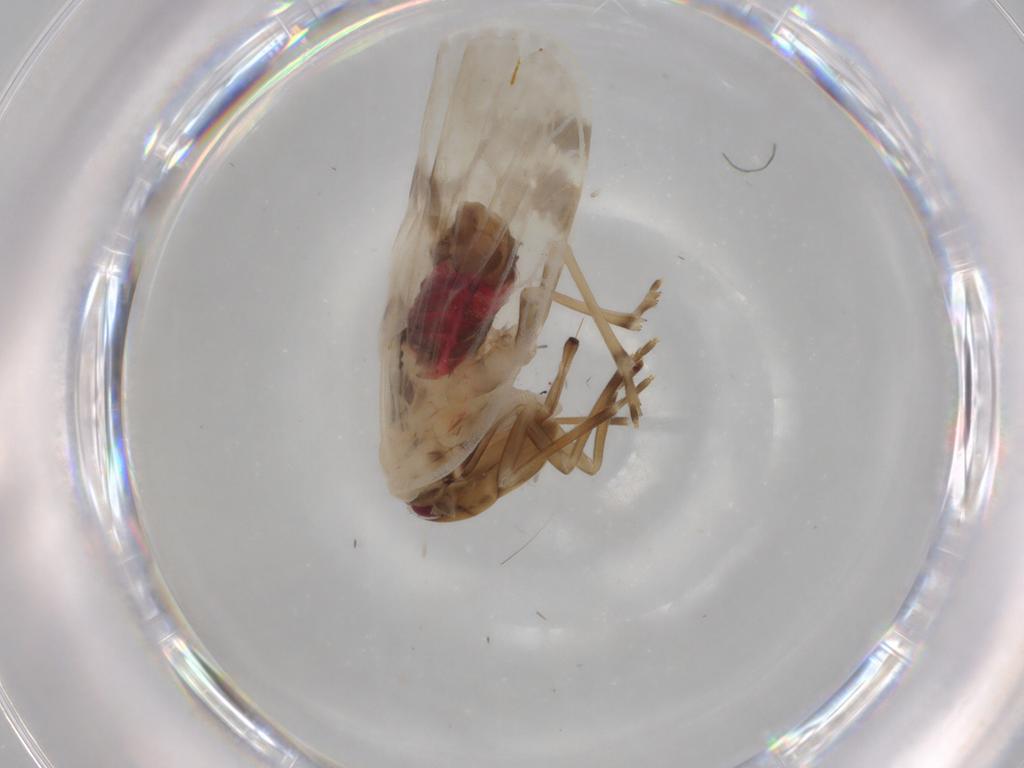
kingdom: Animalia
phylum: Arthropoda
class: Insecta
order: Hemiptera
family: Achilidae
